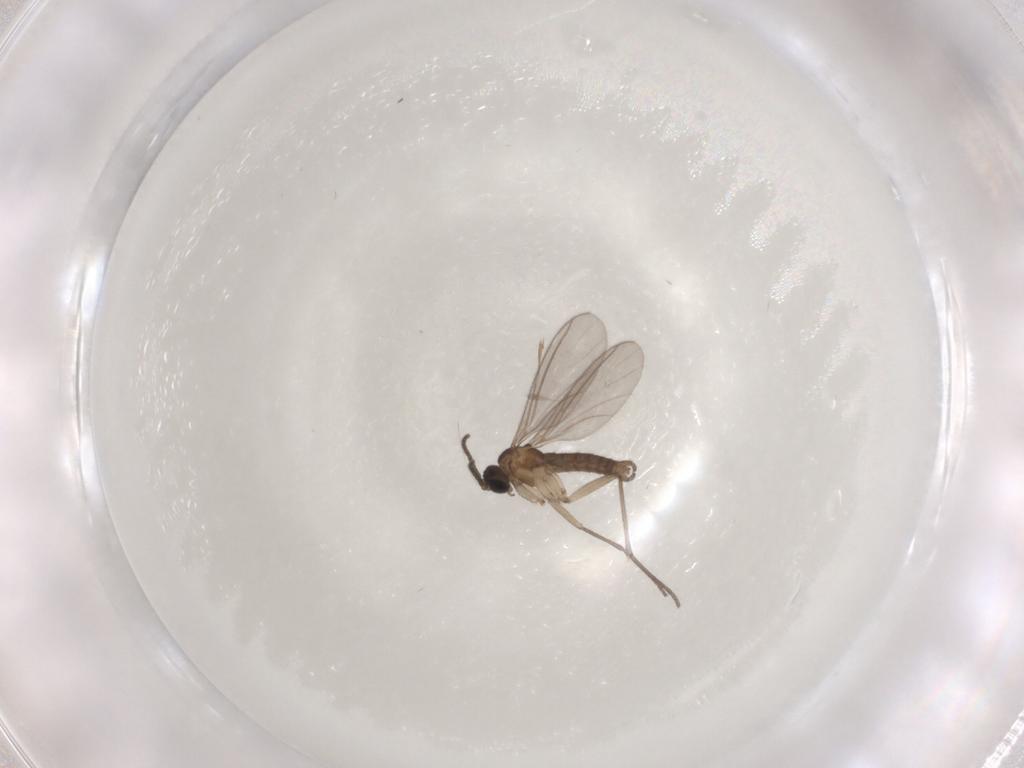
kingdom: Animalia
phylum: Arthropoda
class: Insecta
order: Diptera
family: Sciaridae
